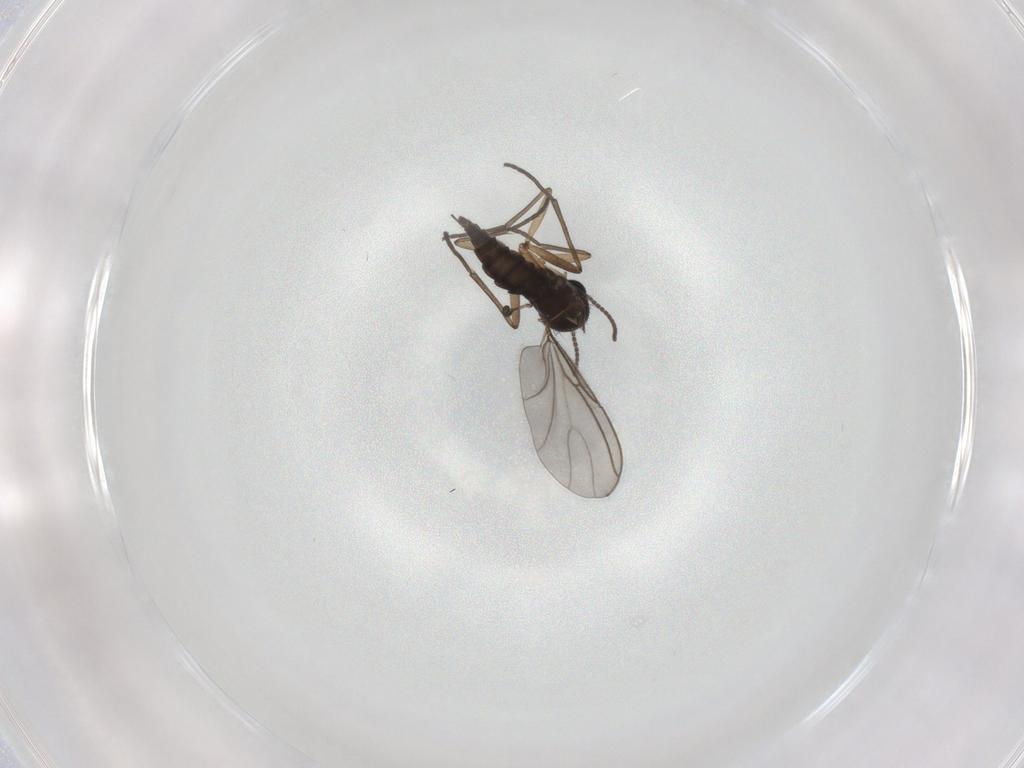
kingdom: Animalia
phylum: Arthropoda
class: Insecta
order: Diptera
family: Sciaridae
